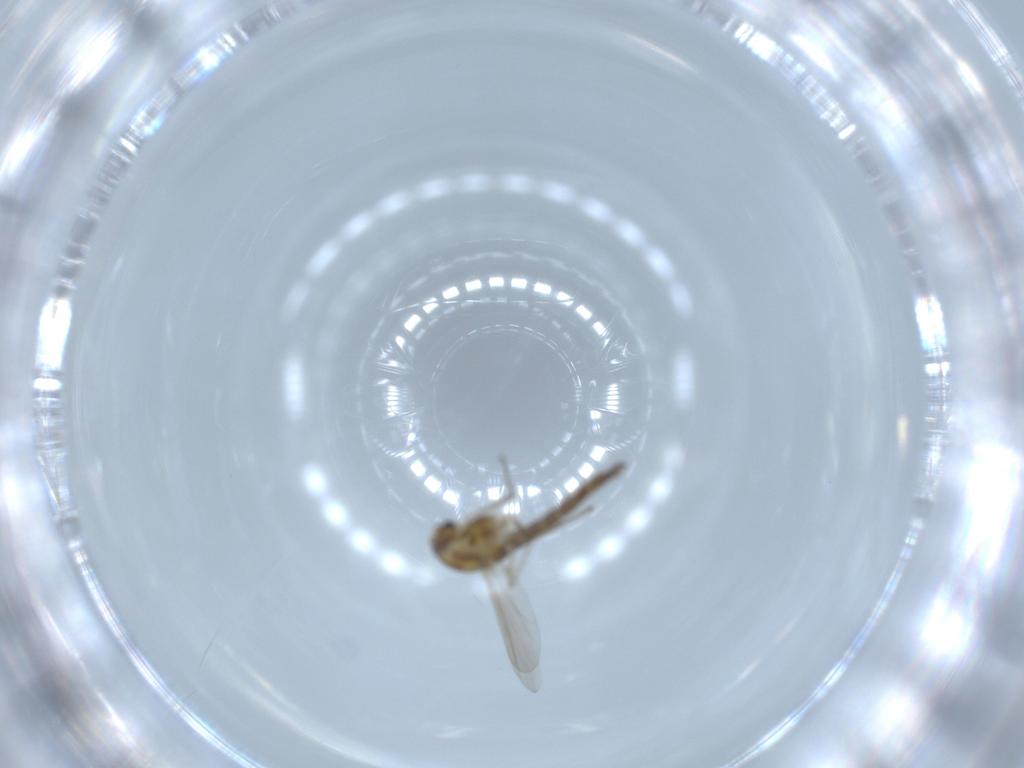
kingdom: Animalia
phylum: Arthropoda
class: Insecta
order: Diptera
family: Chironomidae
